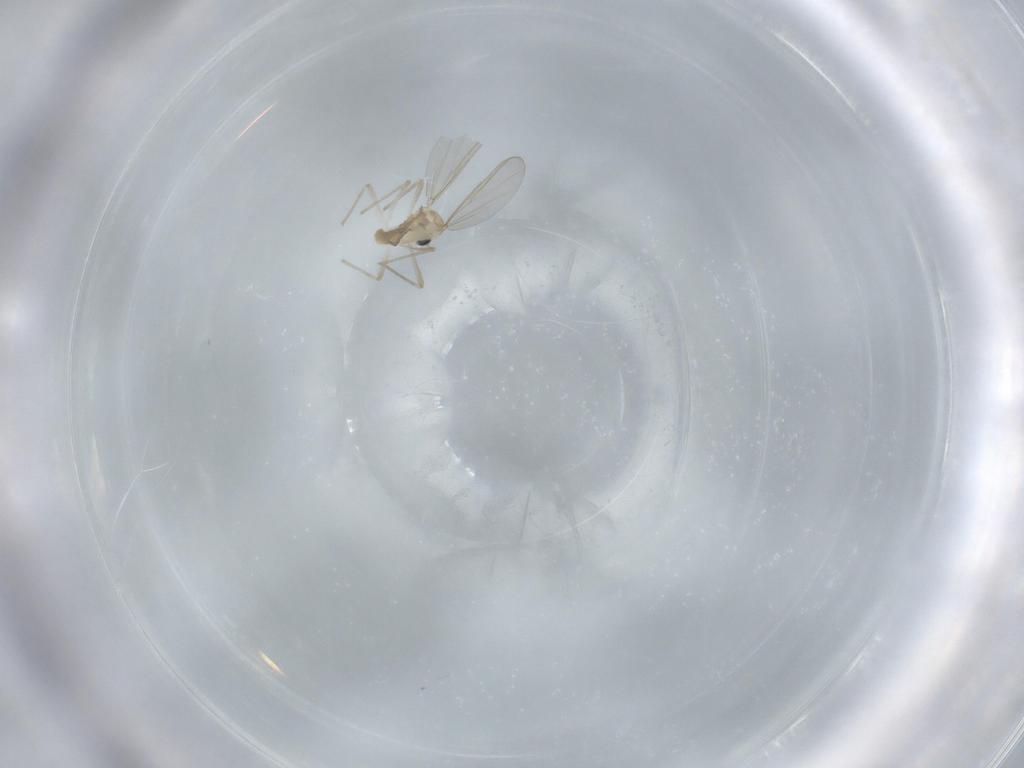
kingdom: Animalia
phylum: Arthropoda
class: Insecta
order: Diptera
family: Chironomidae
